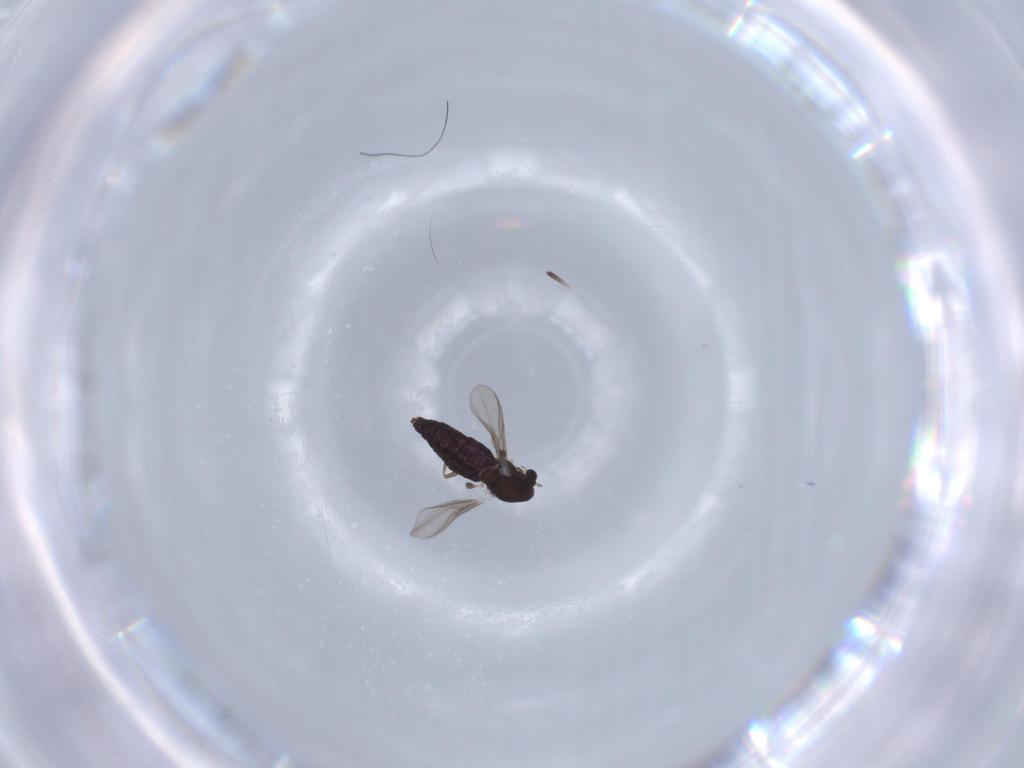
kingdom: Animalia
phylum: Arthropoda
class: Insecta
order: Diptera
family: Chironomidae
